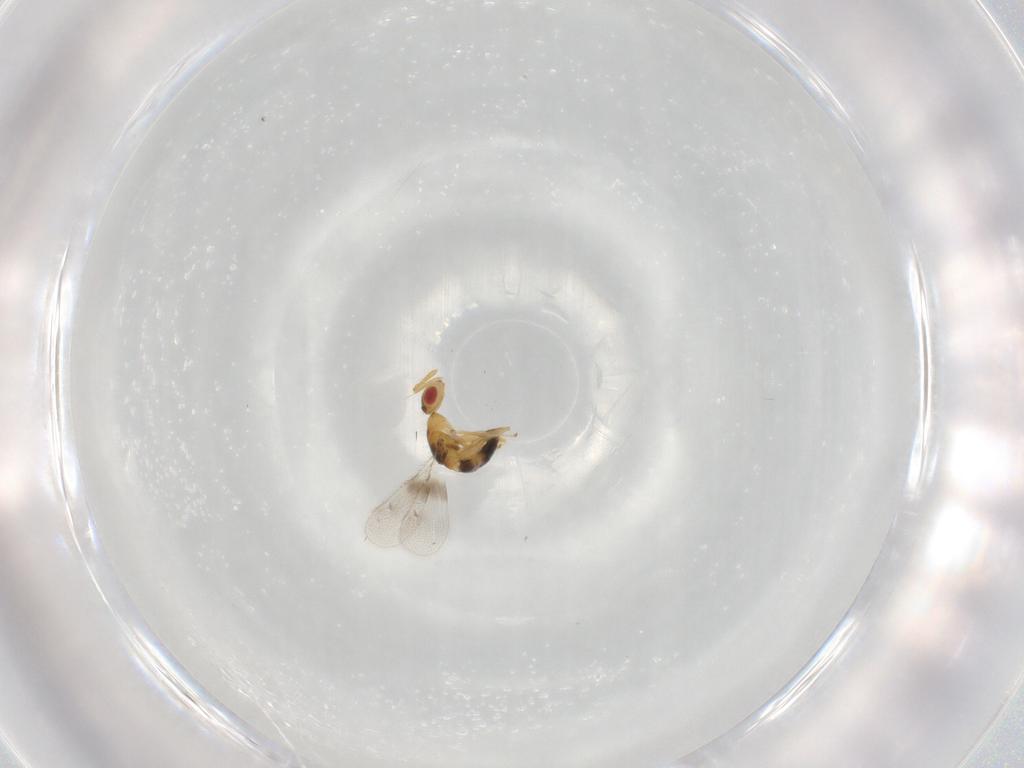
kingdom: Animalia
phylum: Arthropoda
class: Insecta
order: Hymenoptera
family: Torymidae
